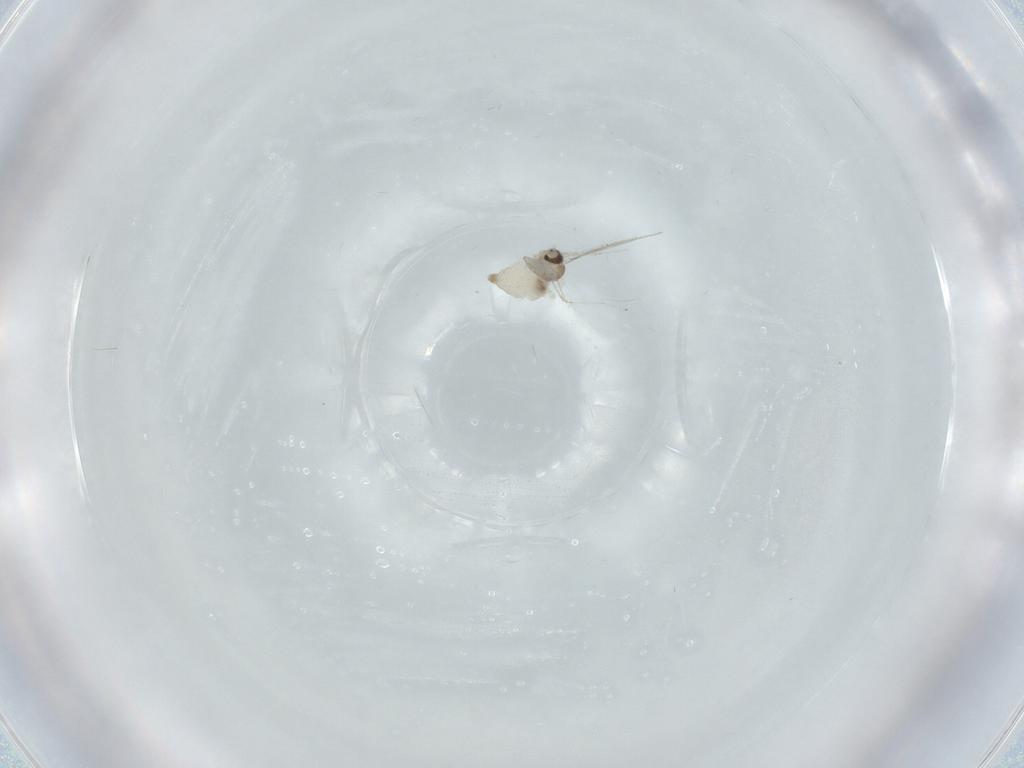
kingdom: Animalia
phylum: Arthropoda
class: Insecta
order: Diptera
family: Cecidomyiidae
